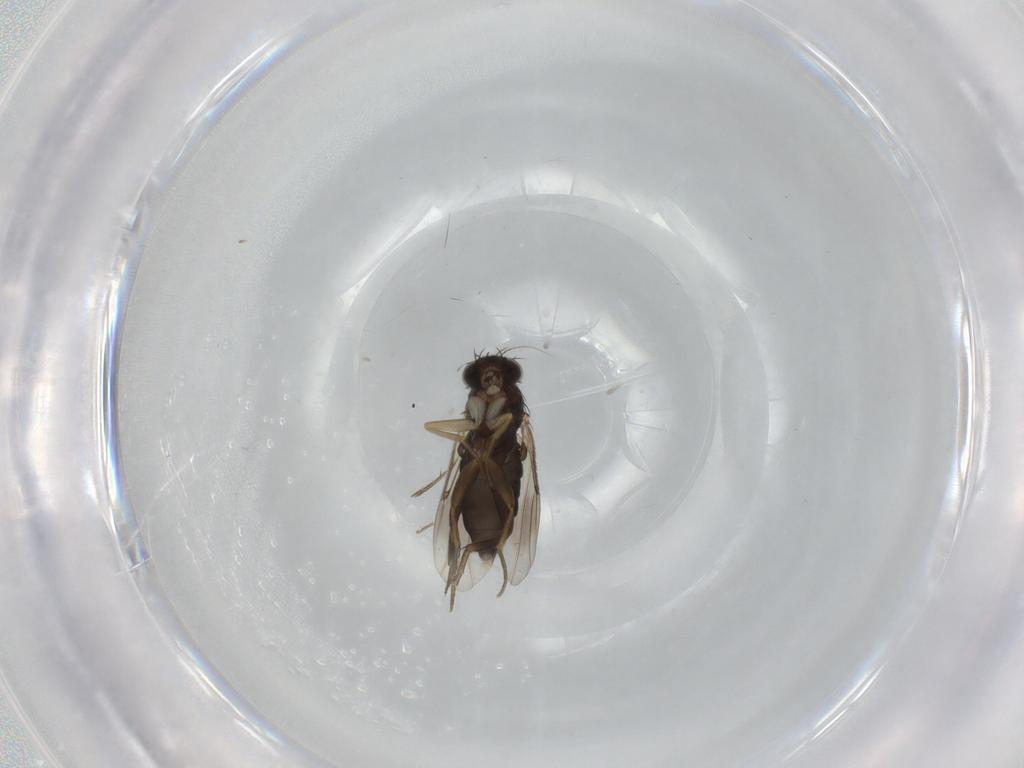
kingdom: Animalia
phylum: Arthropoda
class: Insecta
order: Diptera
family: Phoridae
